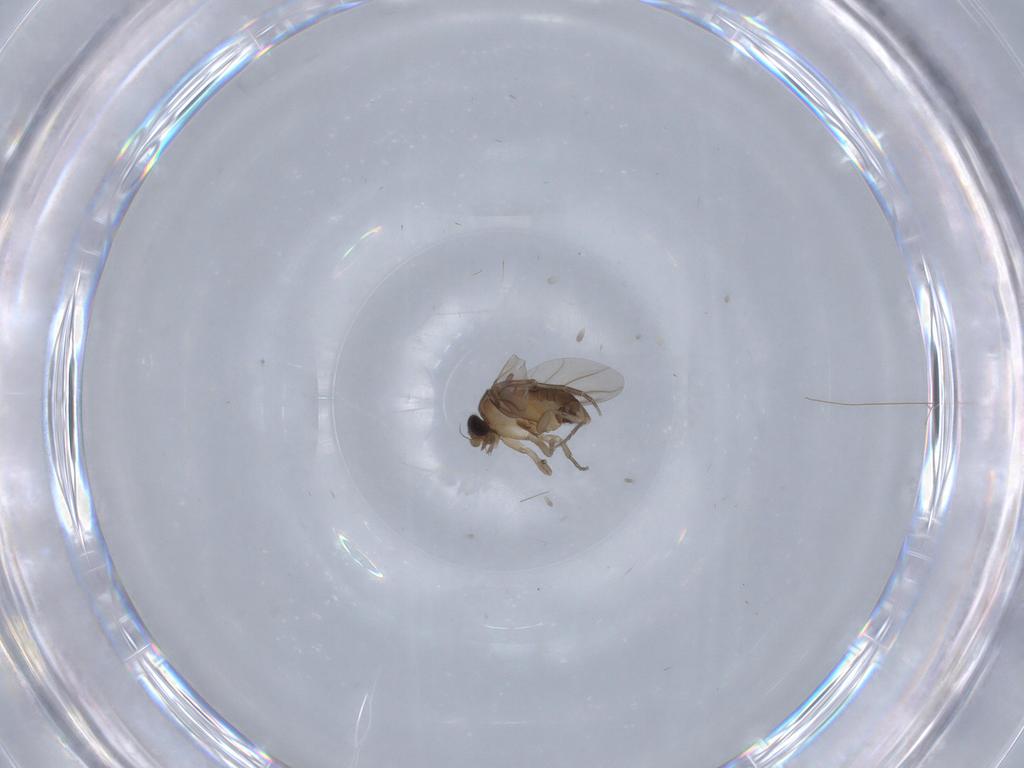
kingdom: Animalia
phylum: Arthropoda
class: Insecta
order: Diptera
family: Phoridae
